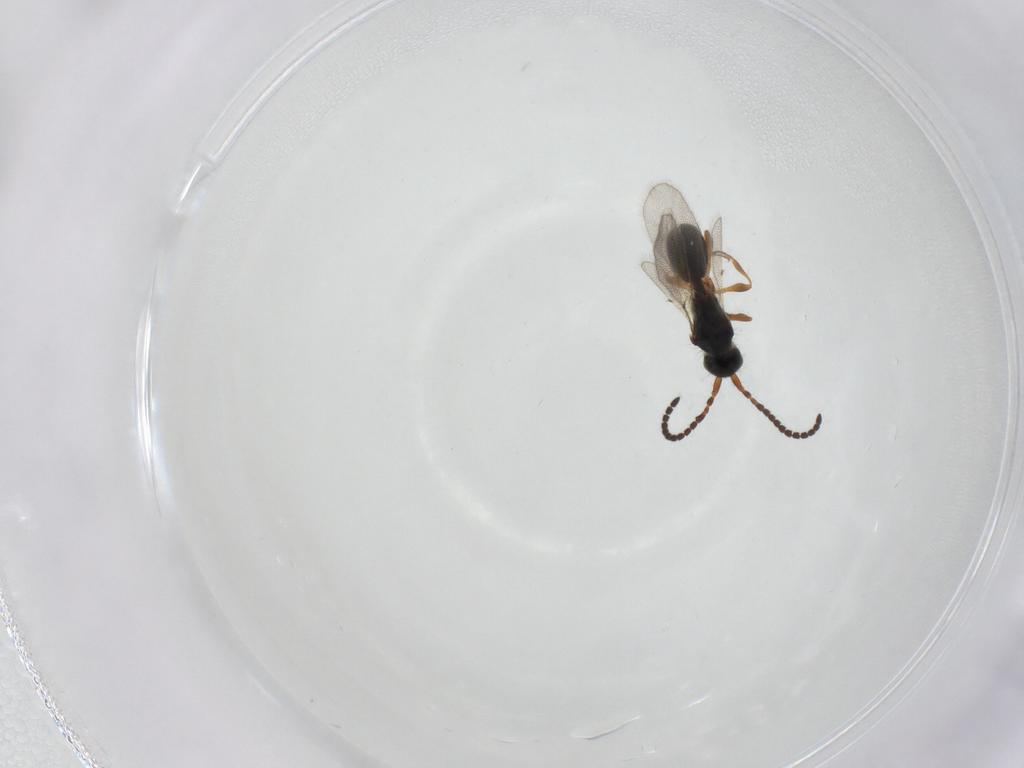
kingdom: Animalia
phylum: Arthropoda
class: Insecta
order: Hymenoptera
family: Diapriidae
